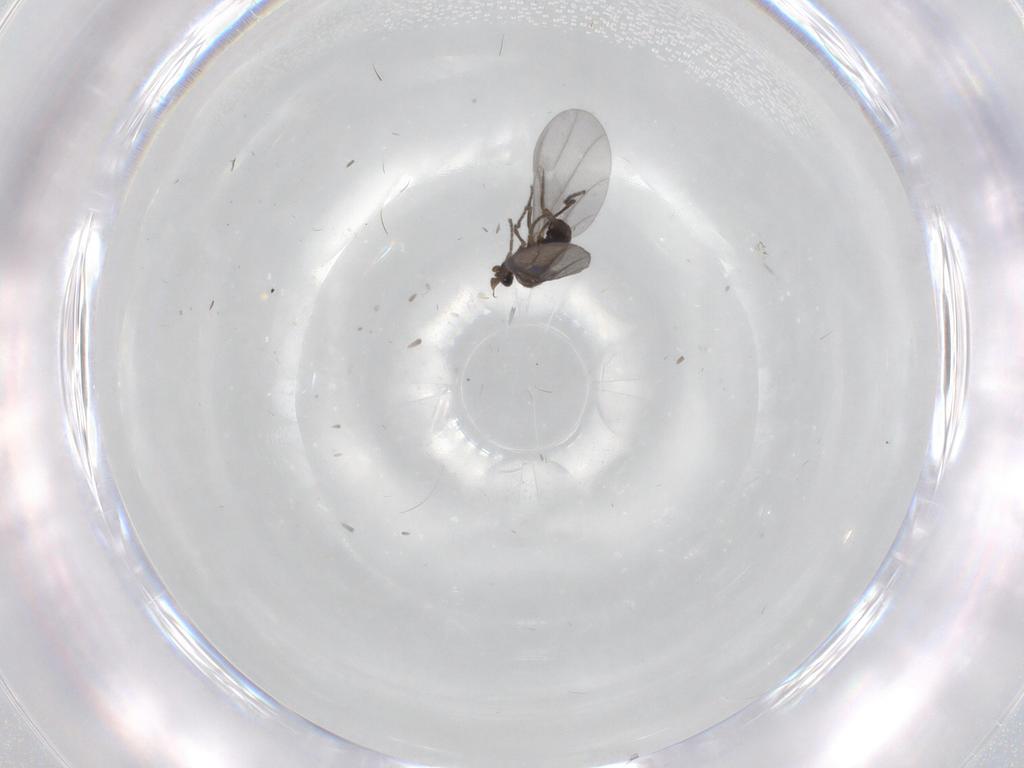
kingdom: Animalia
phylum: Arthropoda
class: Insecta
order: Diptera
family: Phoridae
